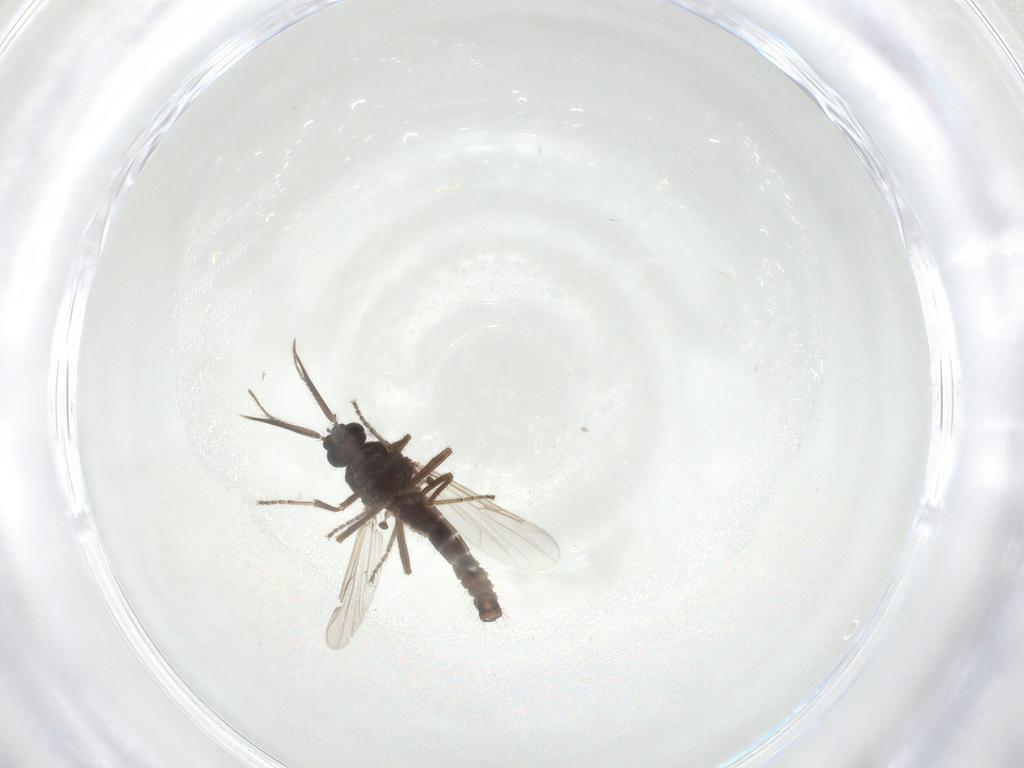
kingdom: Animalia
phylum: Arthropoda
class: Insecta
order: Diptera
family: Ceratopogonidae
